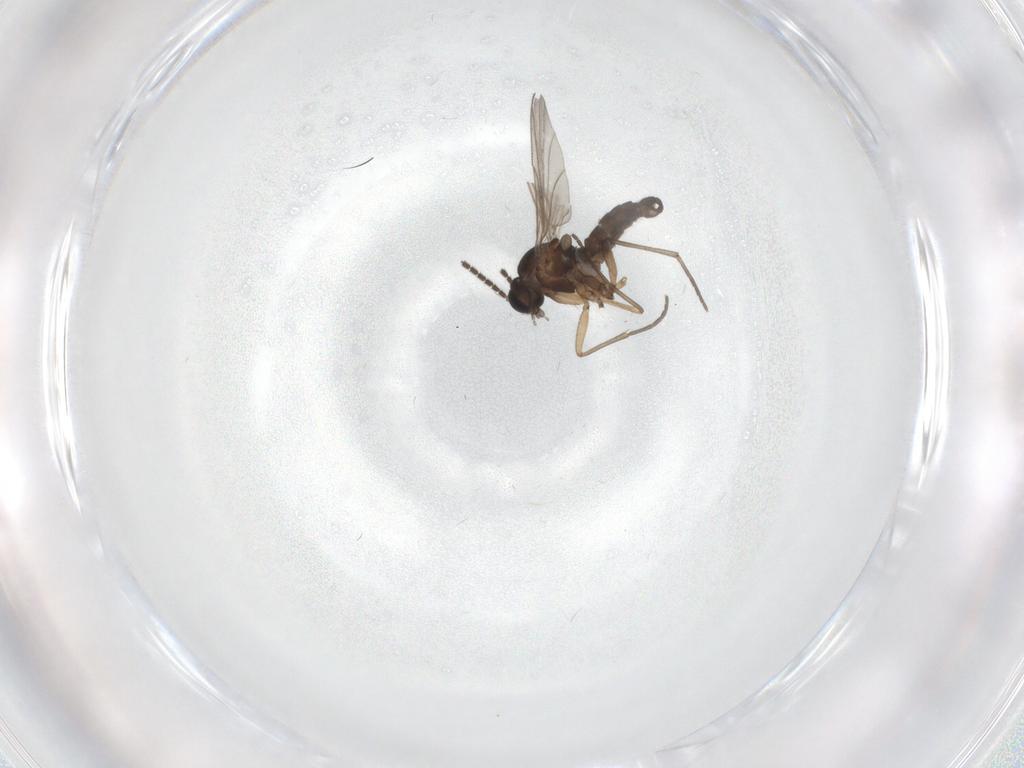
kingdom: Animalia
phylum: Arthropoda
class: Insecta
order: Diptera
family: Sciaridae
